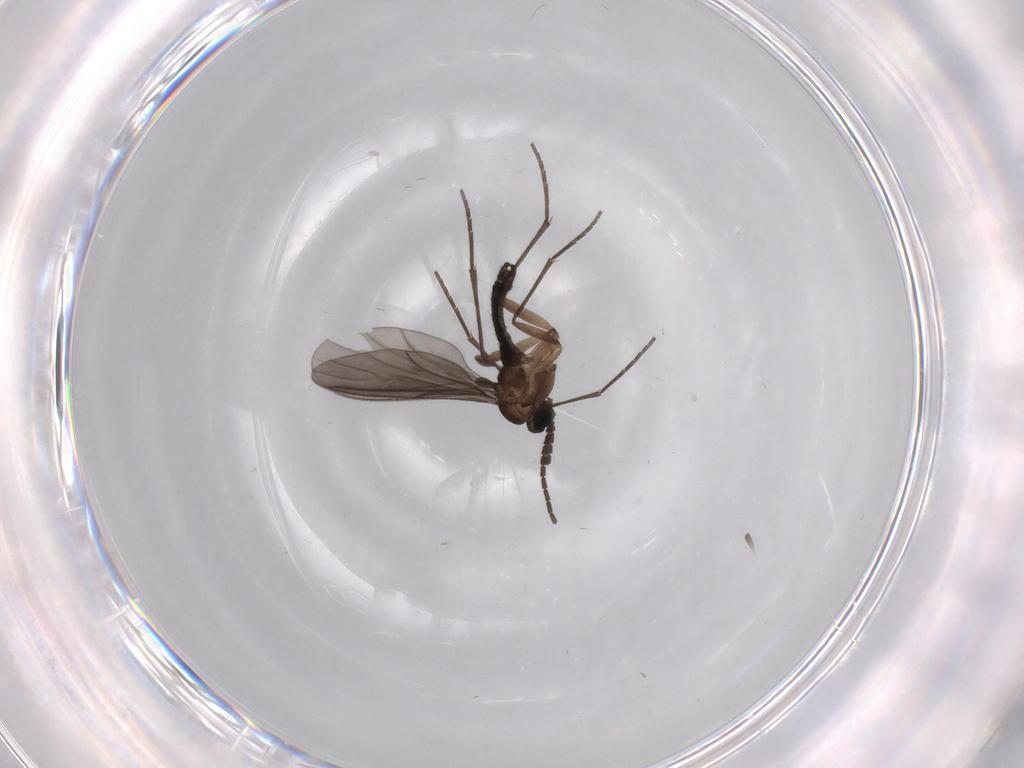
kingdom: Animalia
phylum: Arthropoda
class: Insecta
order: Diptera
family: Sciaridae
